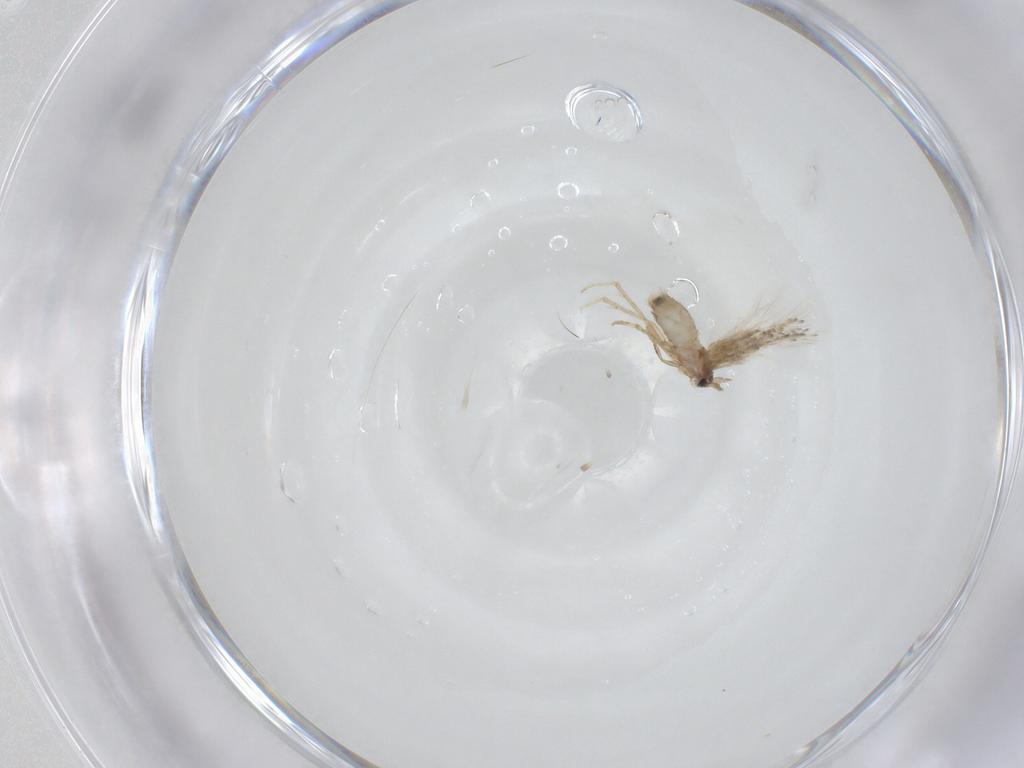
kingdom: Animalia
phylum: Arthropoda
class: Insecta
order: Lepidoptera
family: Nepticulidae
